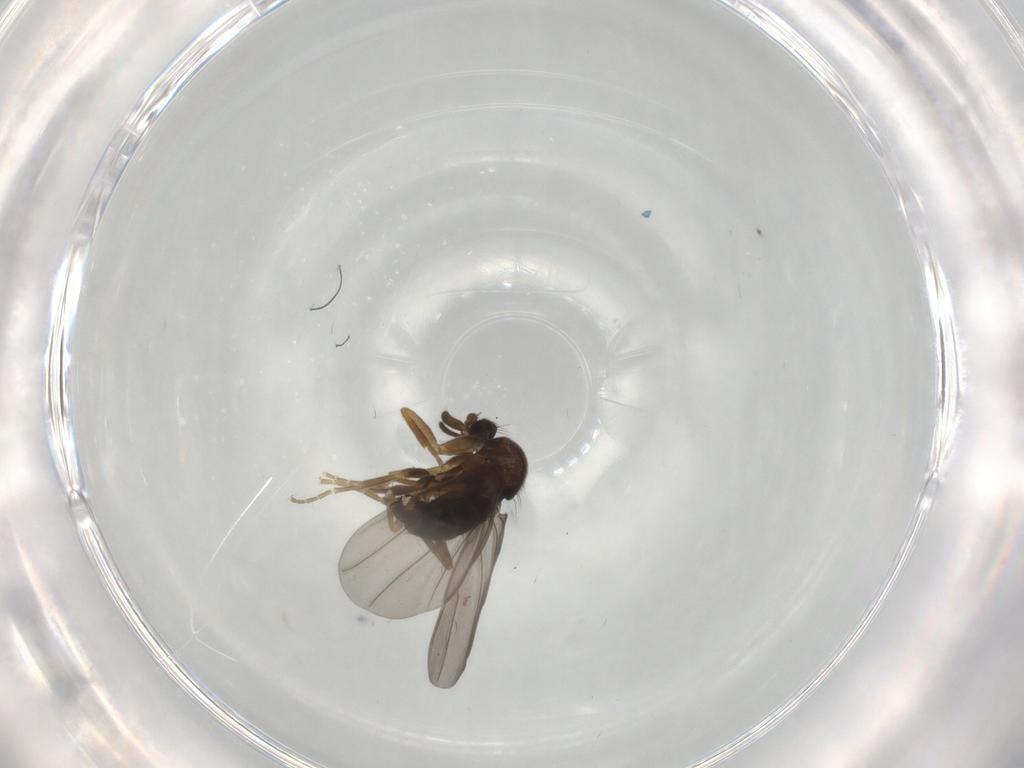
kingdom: Animalia
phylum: Arthropoda
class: Insecta
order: Diptera
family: Phoridae
